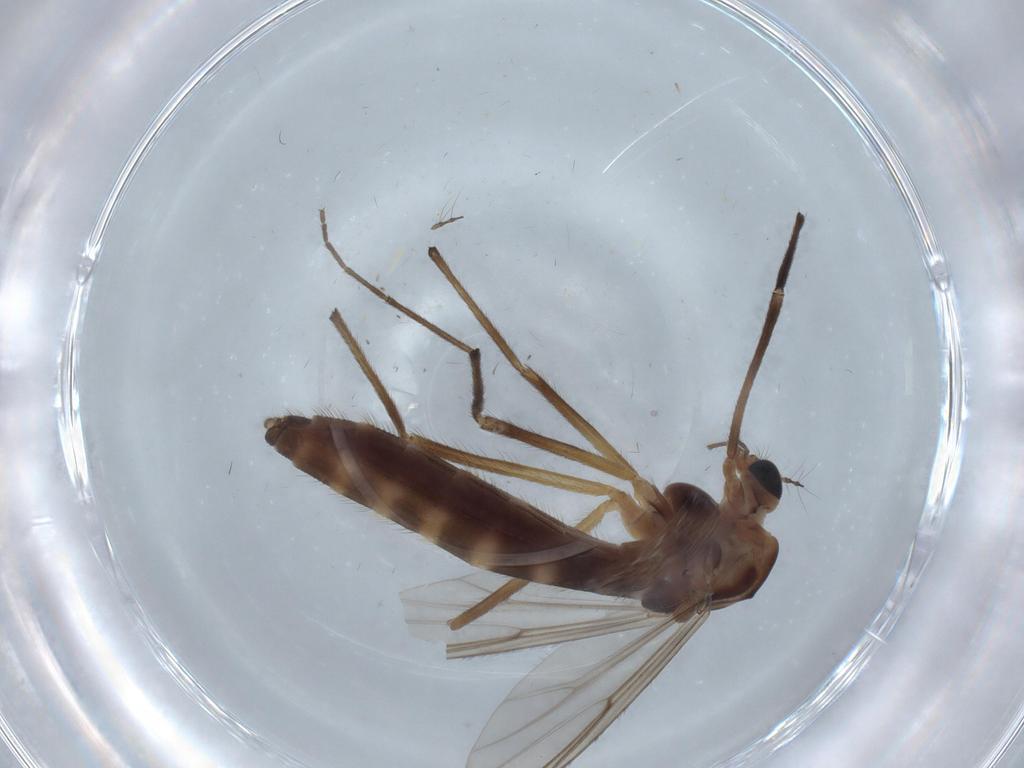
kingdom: Animalia
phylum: Arthropoda
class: Insecta
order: Diptera
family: Cecidomyiidae
